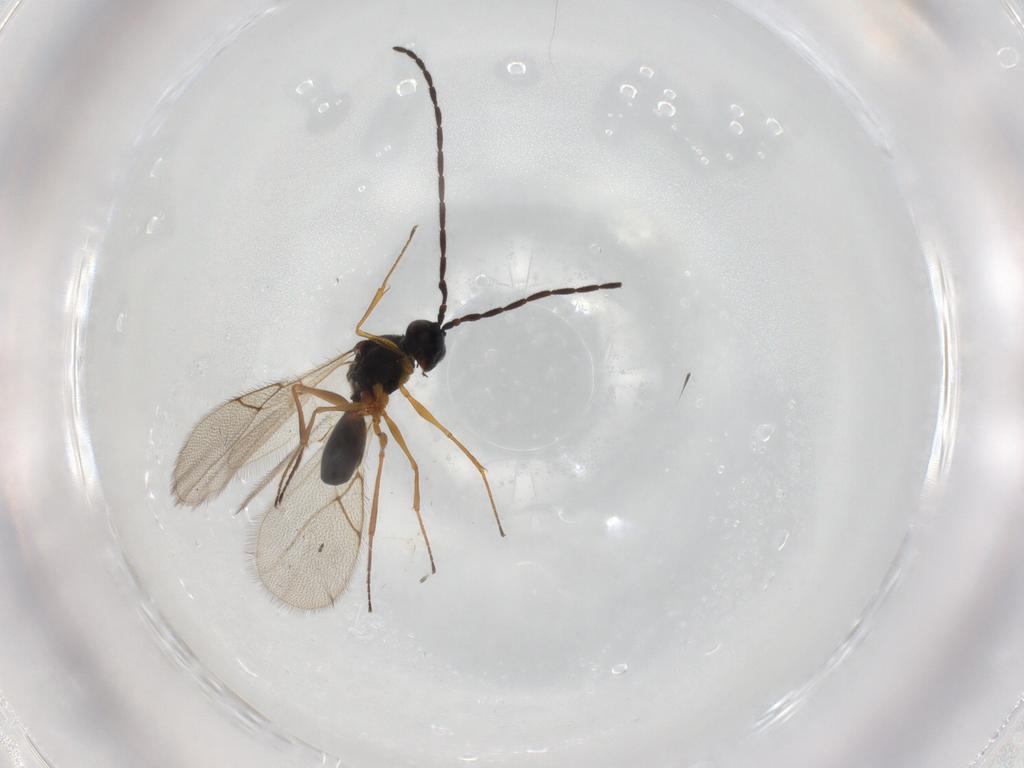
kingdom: Animalia
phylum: Arthropoda
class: Insecta
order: Hymenoptera
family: Figitidae
